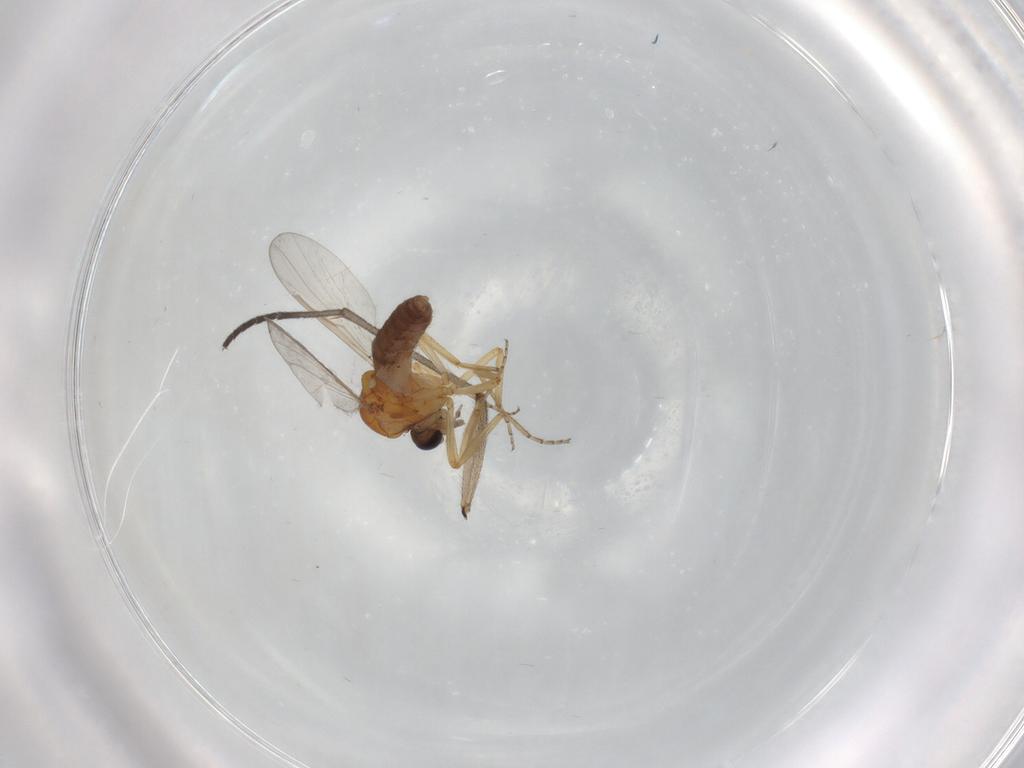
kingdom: Animalia
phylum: Arthropoda
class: Insecta
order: Diptera
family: Ceratopogonidae
